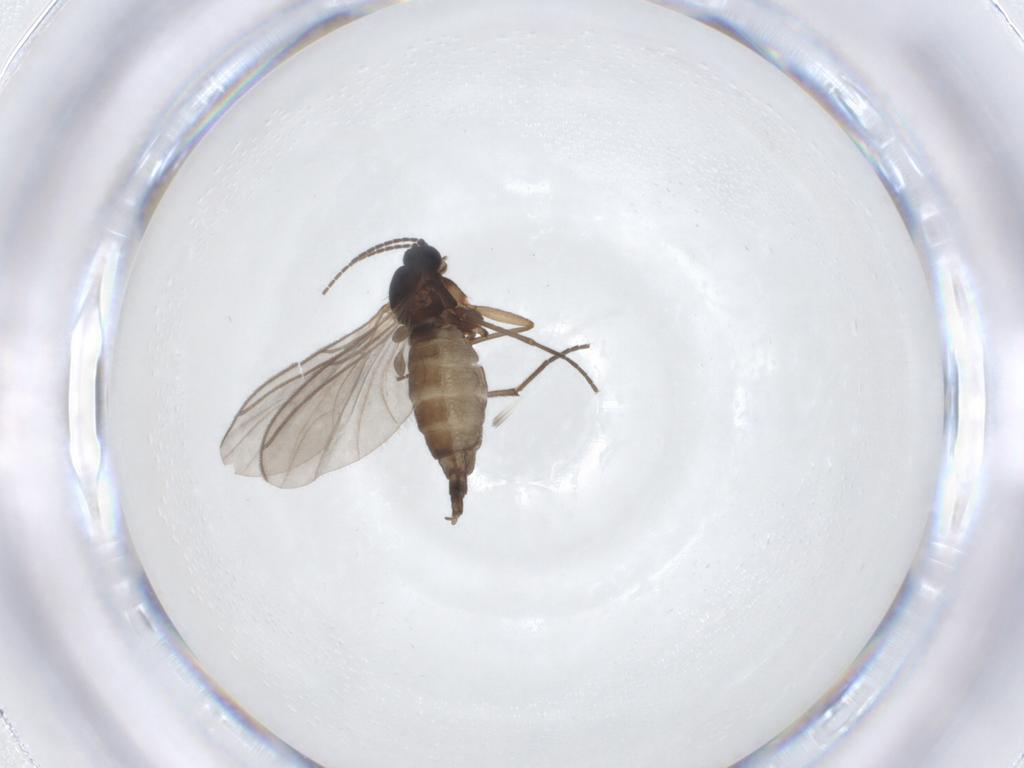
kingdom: Animalia
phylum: Arthropoda
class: Insecta
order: Diptera
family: Sciaridae
